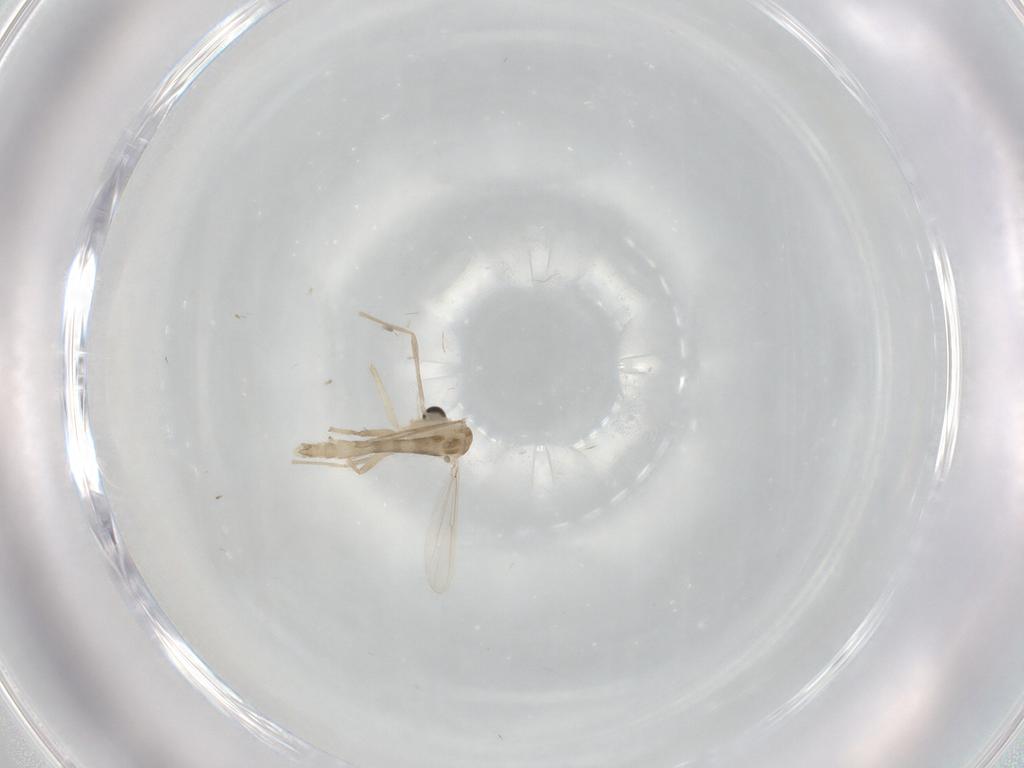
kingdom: Animalia
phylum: Arthropoda
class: Insecta
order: Diptera
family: Chironomidae
